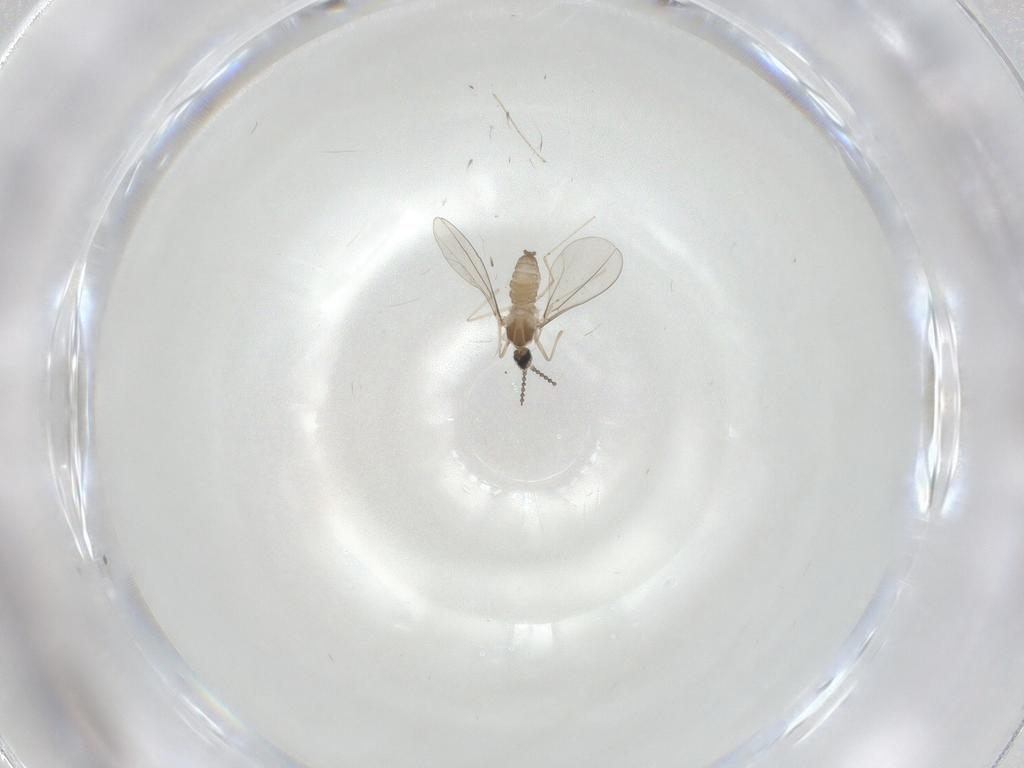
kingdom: Animalia
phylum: Arthropoda
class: Insecta
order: Diptera
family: Cecidomyiidae
